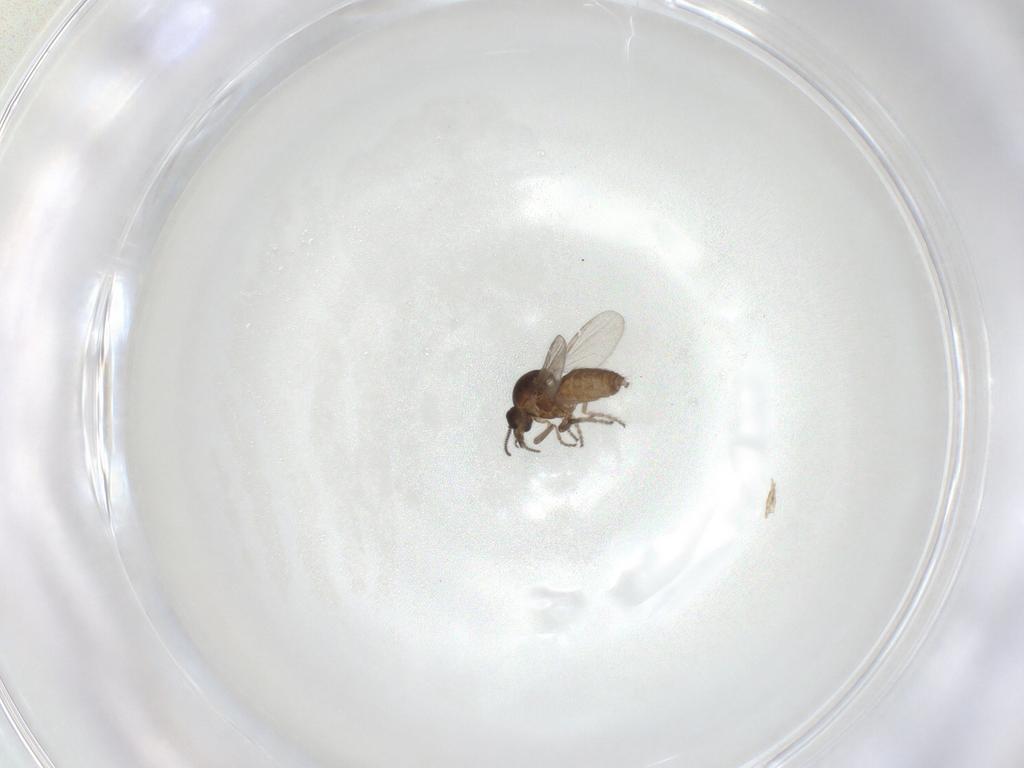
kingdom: Animalia
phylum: Arthropoda
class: Insecta
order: Diptera
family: Ceratopogonidae
